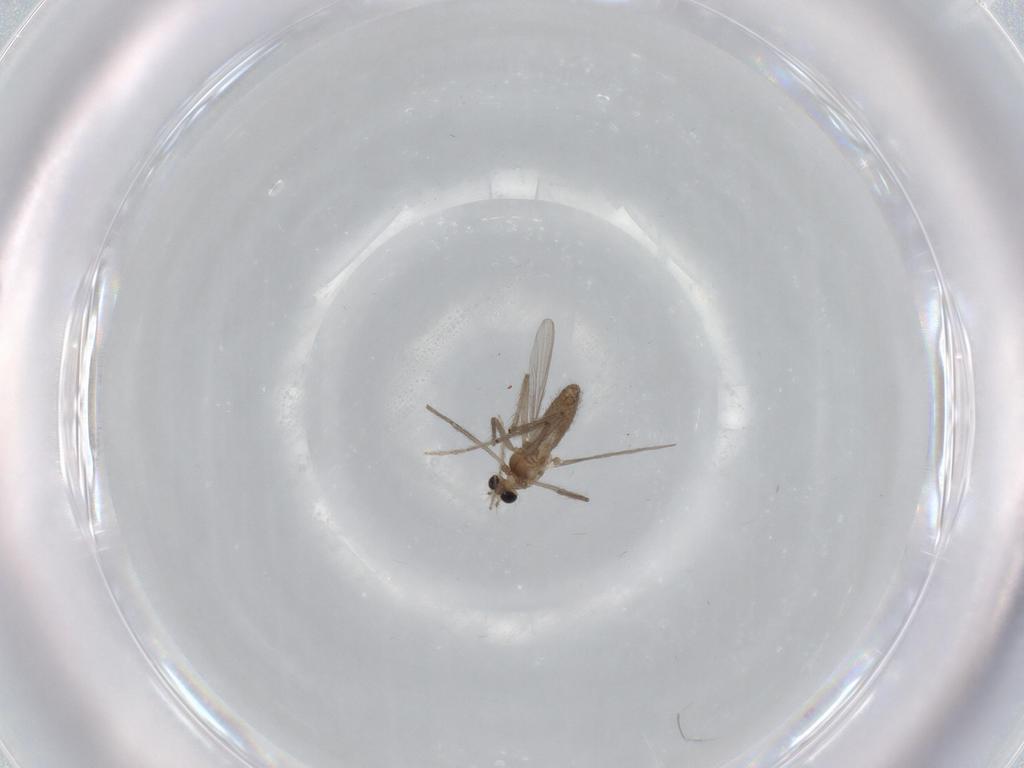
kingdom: Animalia
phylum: Arthropoda
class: Insecta
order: Diptera
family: Chironomidae
